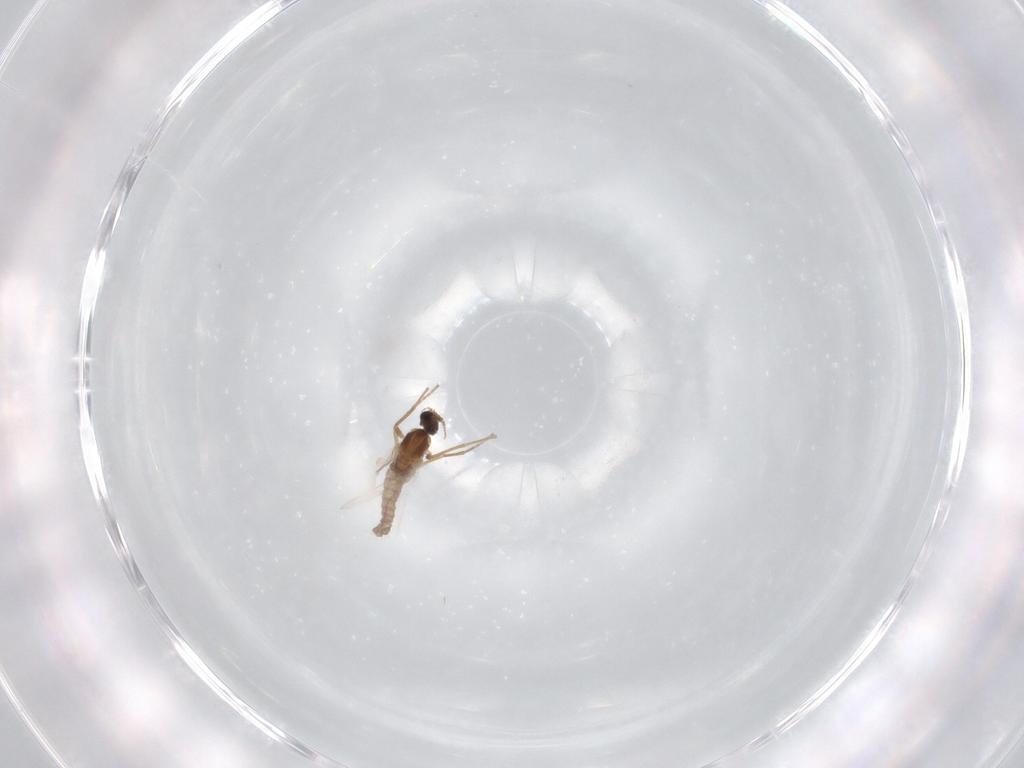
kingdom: Animalia
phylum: Arthropoda
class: Insecta
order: Diptera
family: Cecidomyiidae
